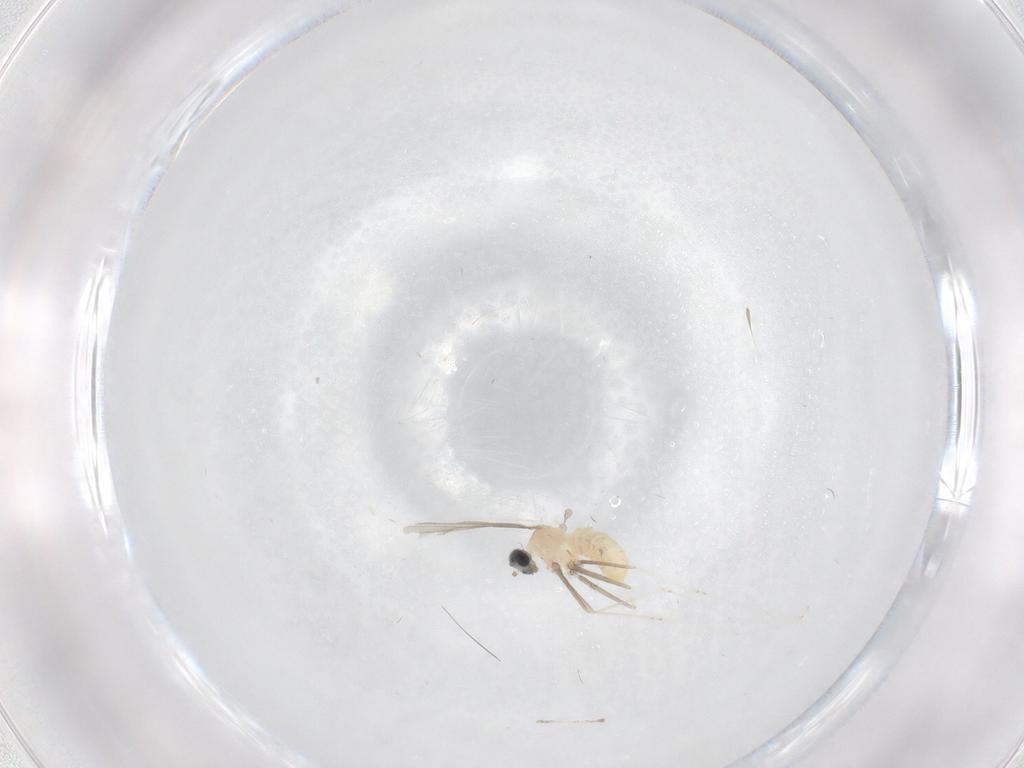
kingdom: Animalia
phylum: Arthropoda
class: Insecta
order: Diptera
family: Cecidomyiidae
